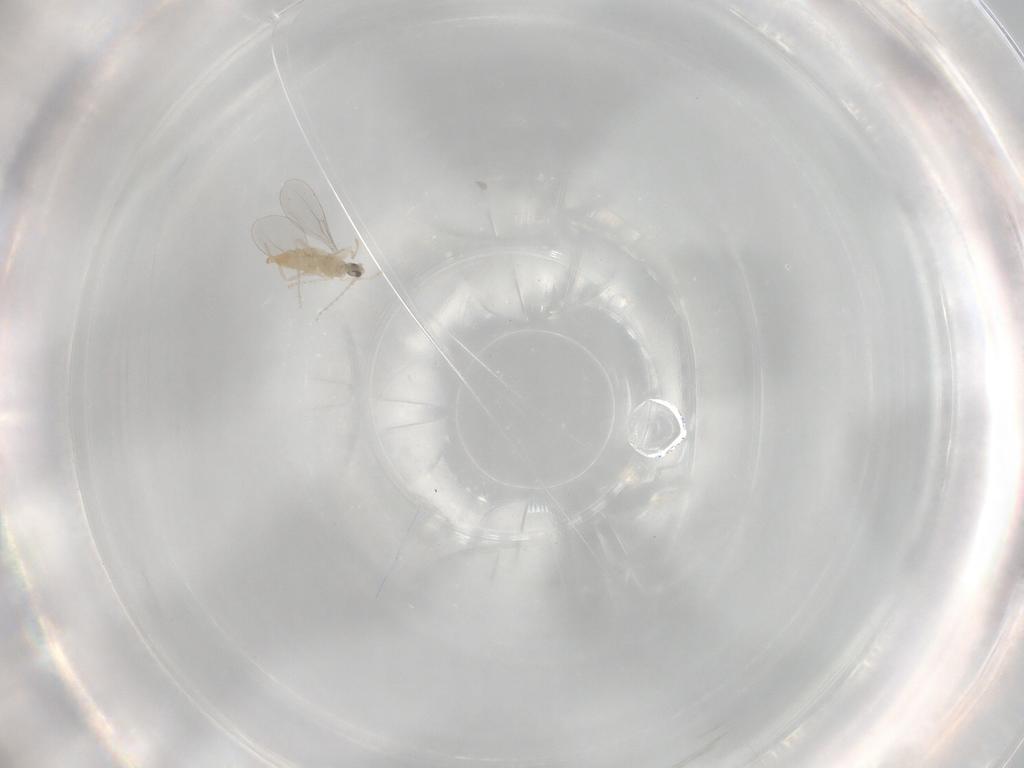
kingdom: Animalia
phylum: Arthropoda
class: Insecta
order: Diptera
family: Cecidomyiidae
